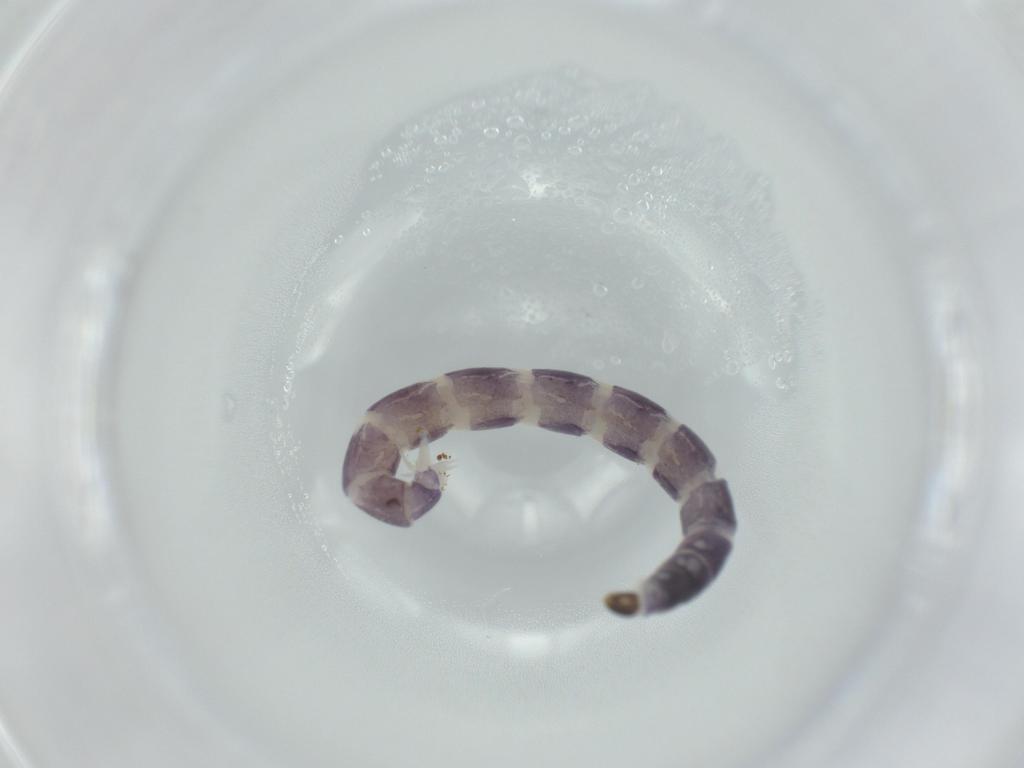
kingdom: Animalia
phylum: Arthropoda
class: Insecta
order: Diptera
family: Chironomidae
